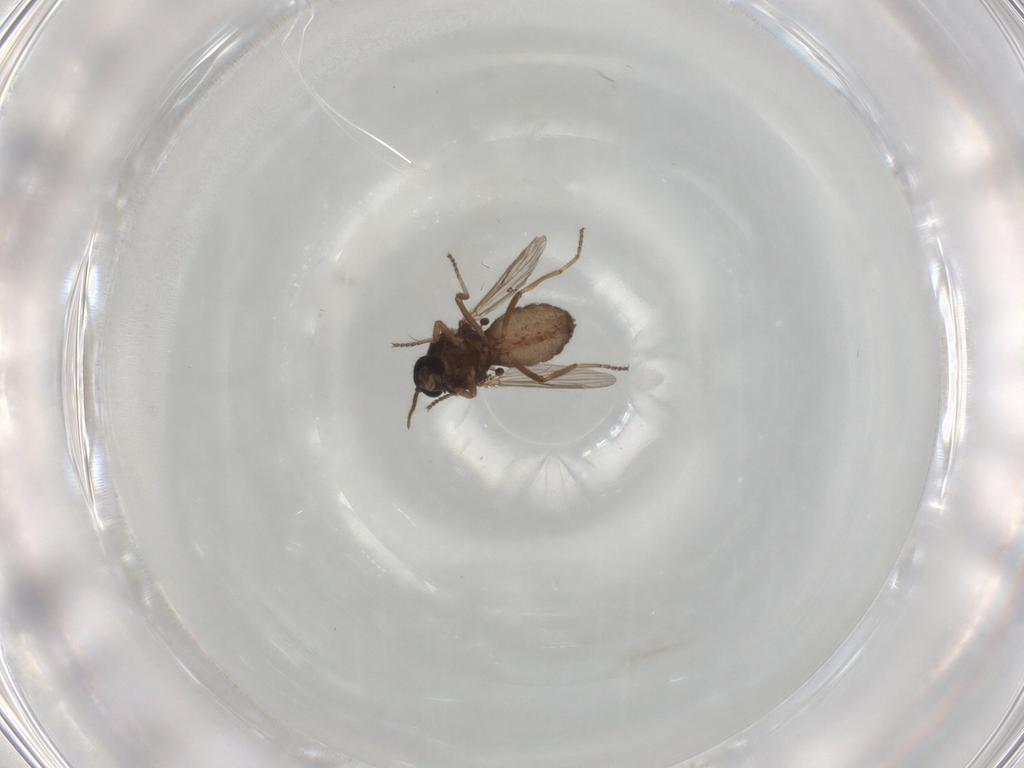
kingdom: Animalia
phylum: Arthropoda
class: Insecta
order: Diptera
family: Ceratopogonidae
